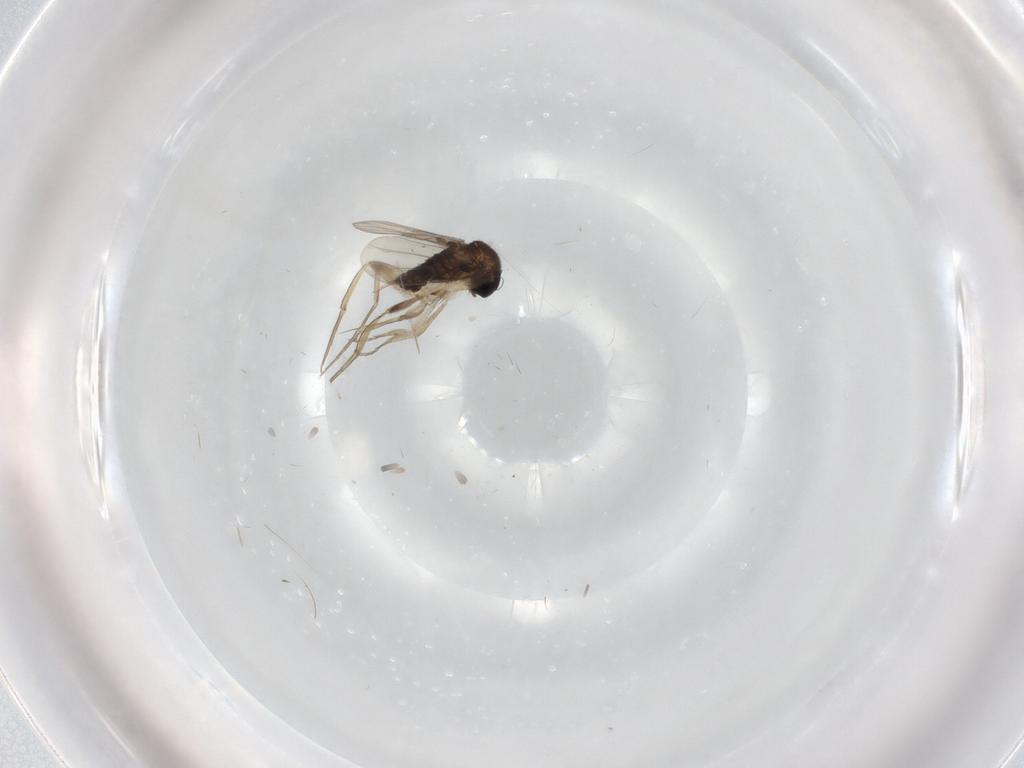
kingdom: Animalia
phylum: Arthropoda
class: Insecta
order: Diptera
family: Phoridae
